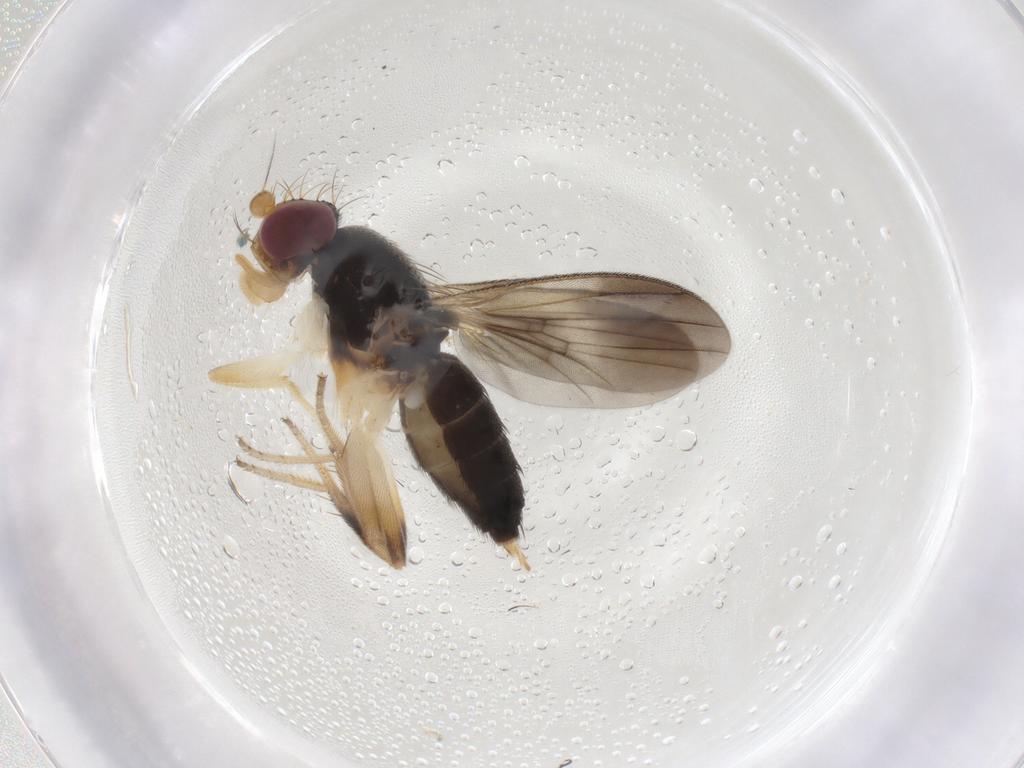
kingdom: Animalia
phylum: Arthropoda
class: Insecta
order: Diptera
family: Clusiidae
